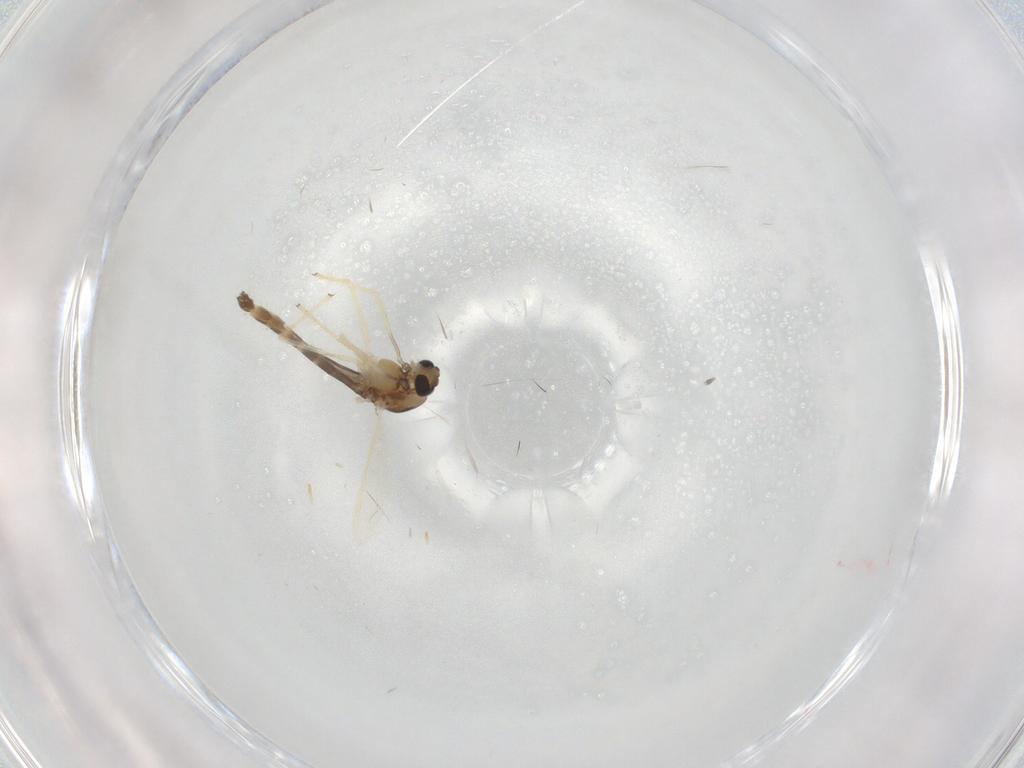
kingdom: Animalia
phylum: Arthropoda
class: Insecta
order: Diptera
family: Chironomidae
